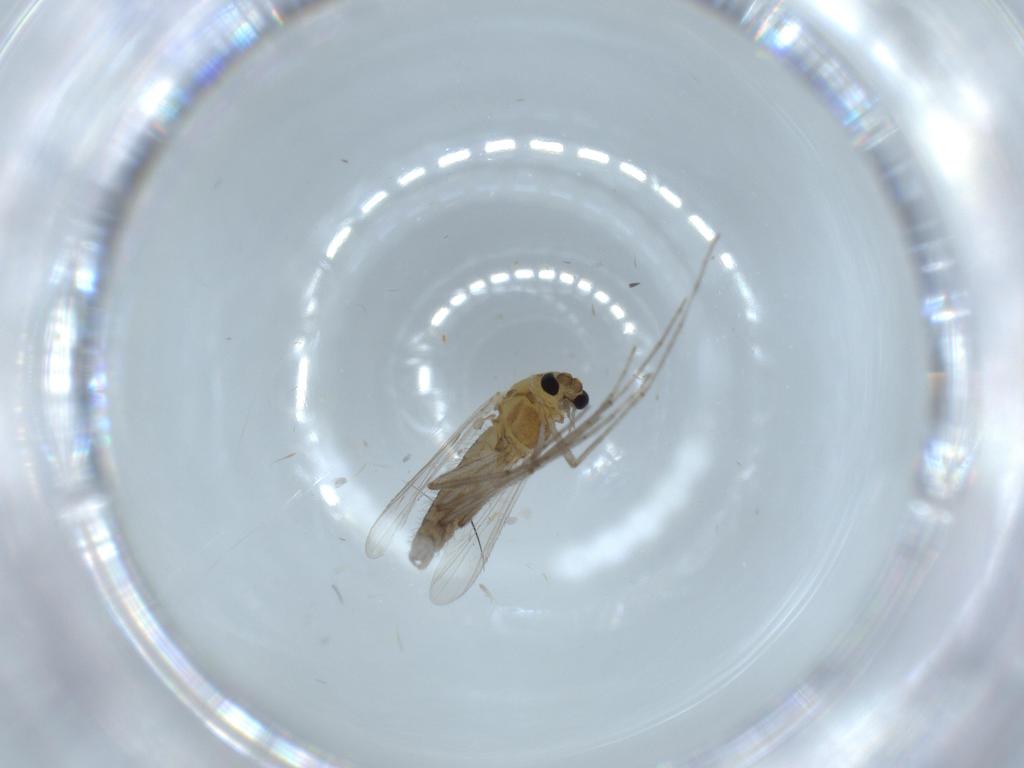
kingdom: Animalia
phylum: Arthropoda
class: Insecta
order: Diptera
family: Chironomidae
